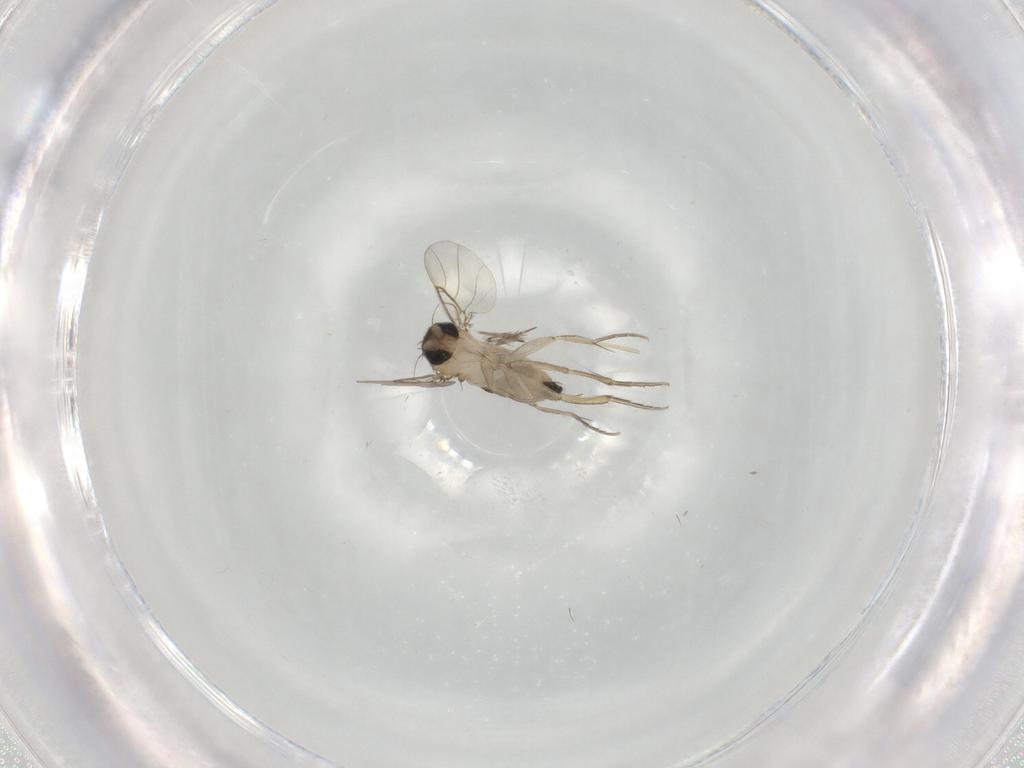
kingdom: Animalia
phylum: Arthropoda
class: Insecta
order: Diptera
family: Phoridae
